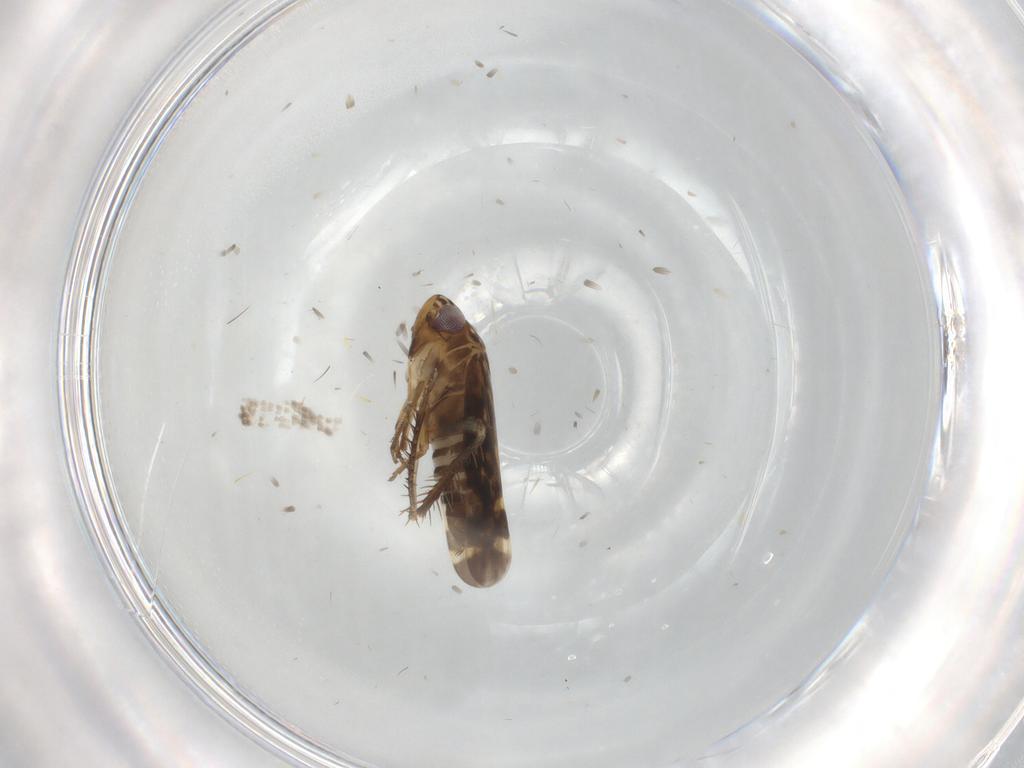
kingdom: Animalia
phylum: Arthropoda
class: Insecta
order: Hemiptera
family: Cicadellidae
